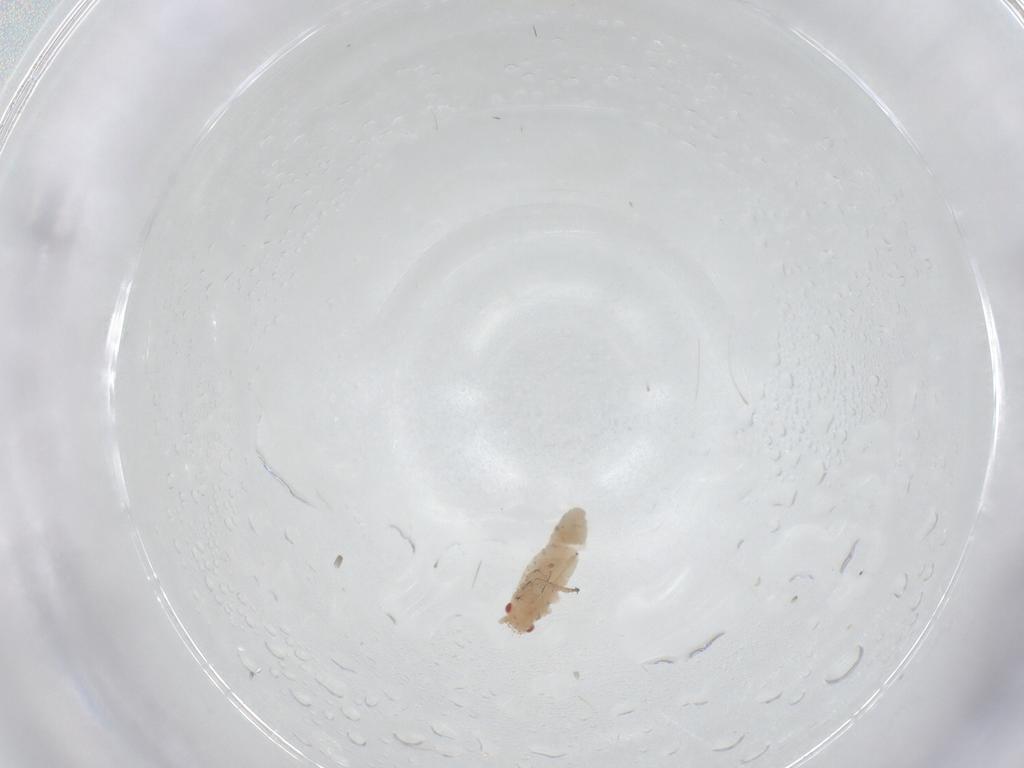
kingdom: Animalia
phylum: Arthropoda
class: Insecta
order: Hemiptera
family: Aphididae
